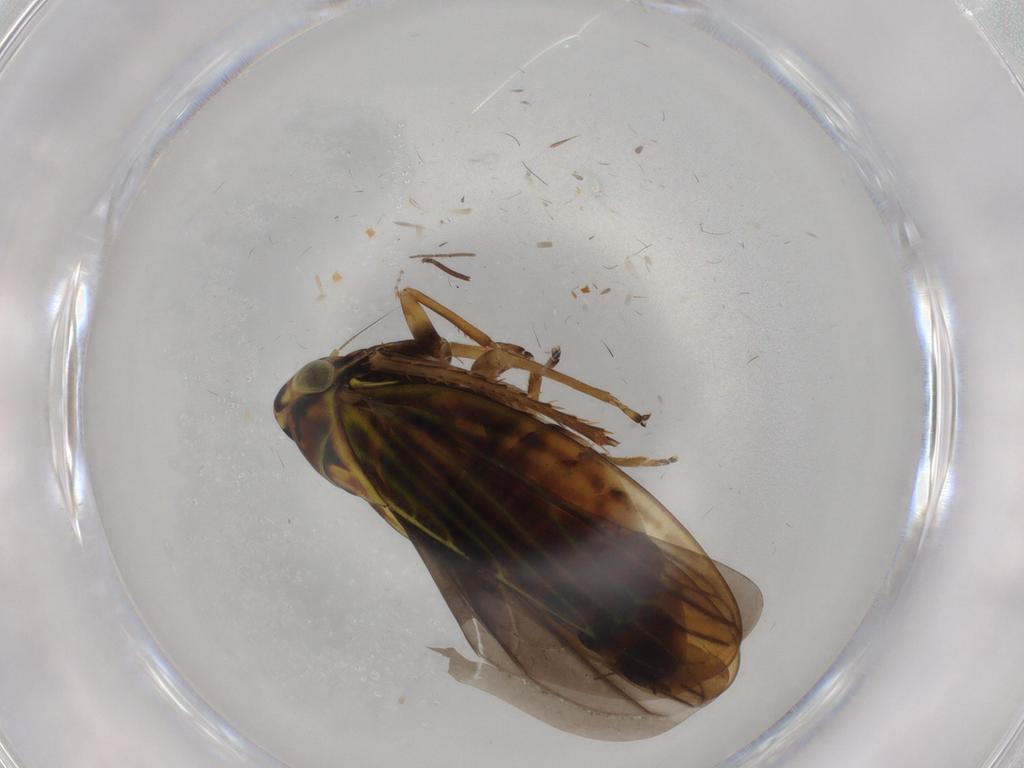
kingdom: Animalia
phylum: Arthropoda
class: Insecta
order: Hemiptera
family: Cicadellidae
